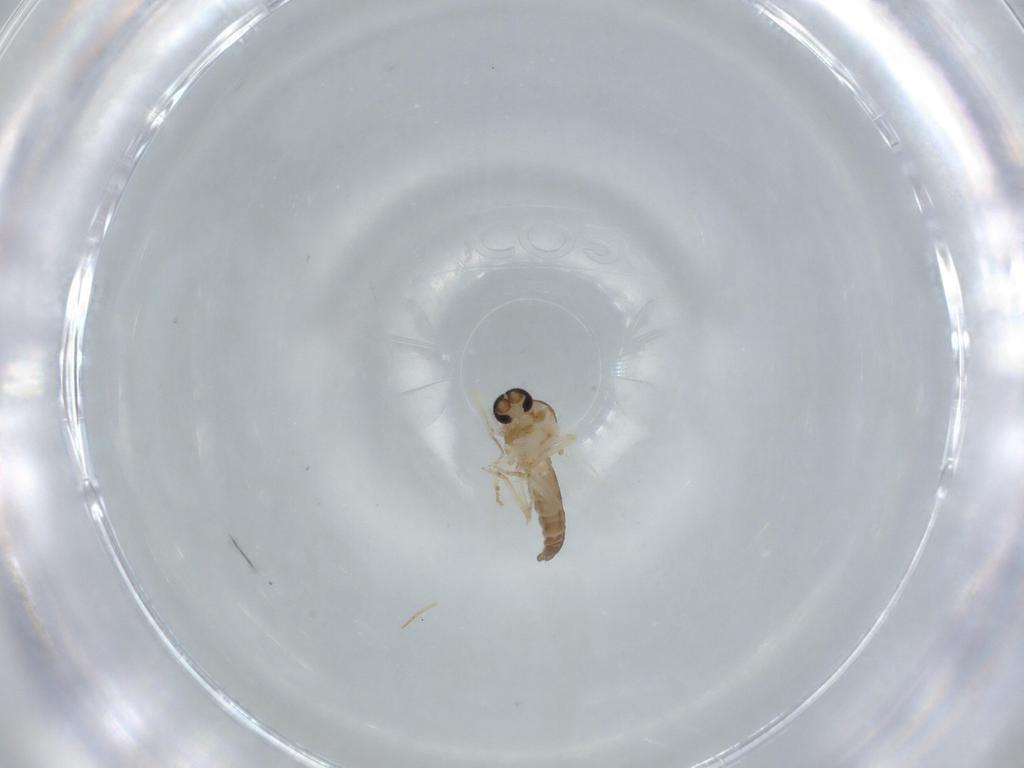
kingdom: Animalia
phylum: Arthropoda
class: Insecta
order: Diptera
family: Ceratopogonidae
